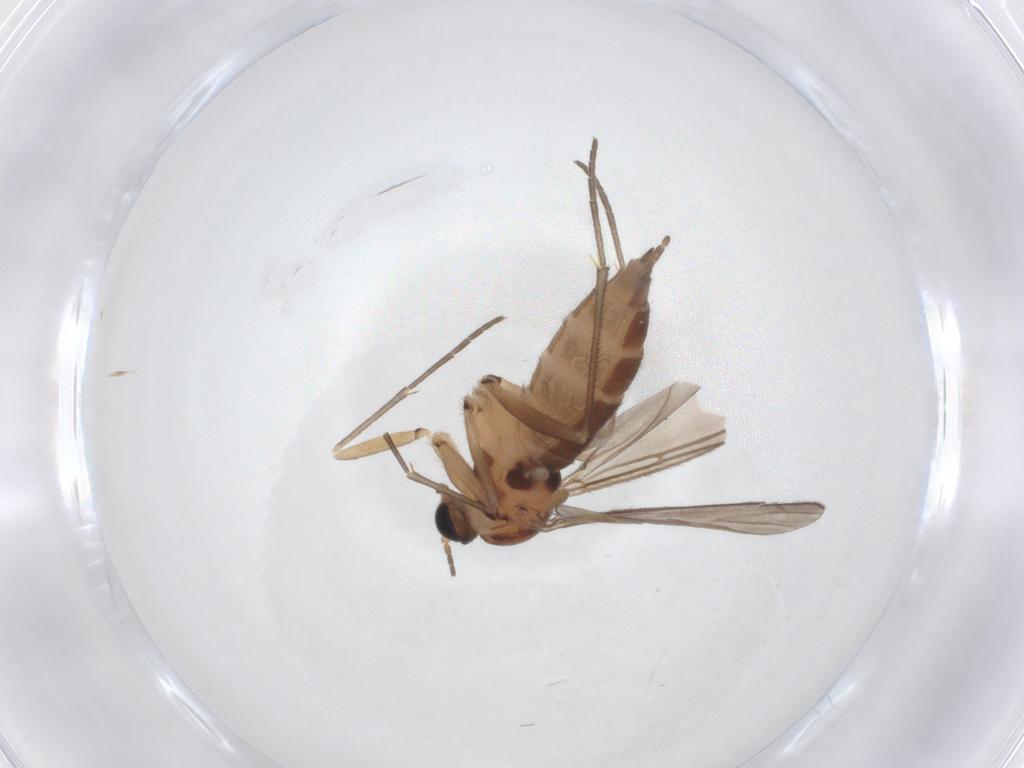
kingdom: Animalia
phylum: Arthropoda
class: Insecta
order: Diptera
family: Sciaridae
